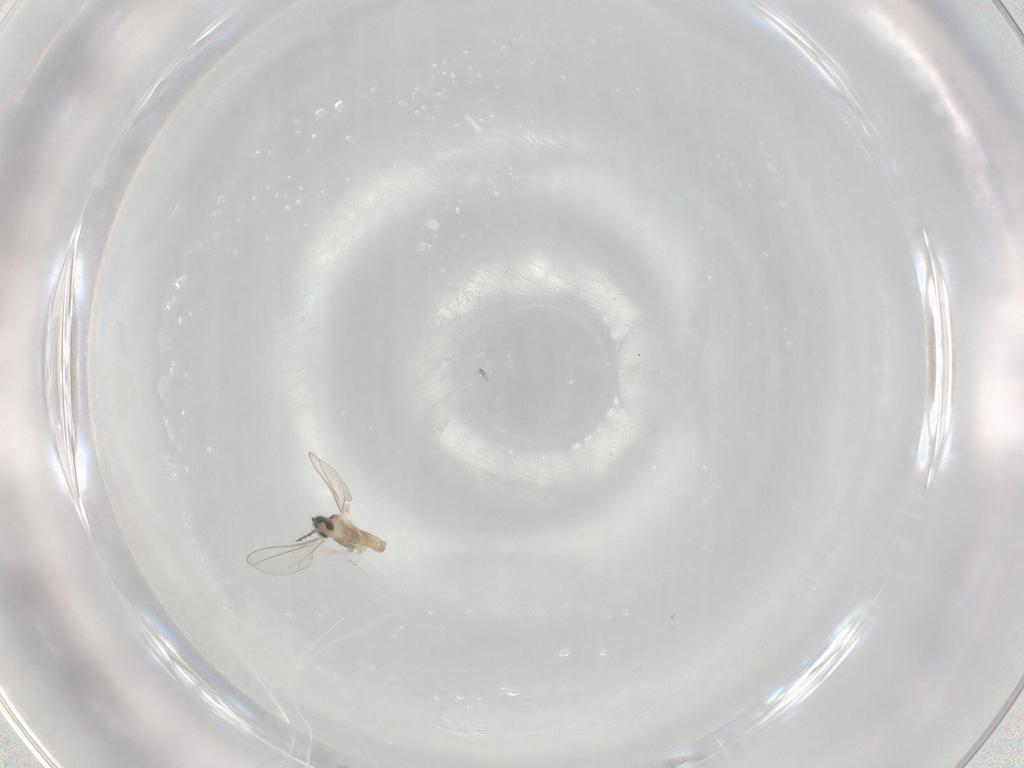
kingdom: Animalia
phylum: Arthropoda
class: Insecta
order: Diptera
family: Cecidomyiidae
